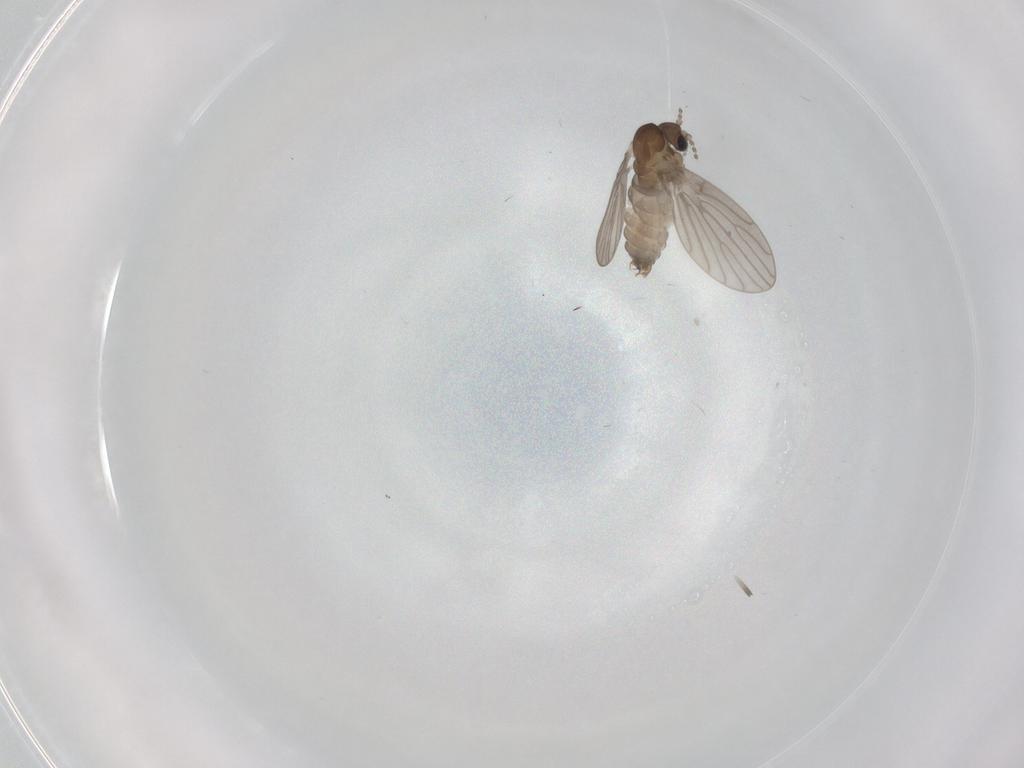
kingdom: Animalia
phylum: Arthropoda
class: Insecta
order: Diptera
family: Psychodidae
